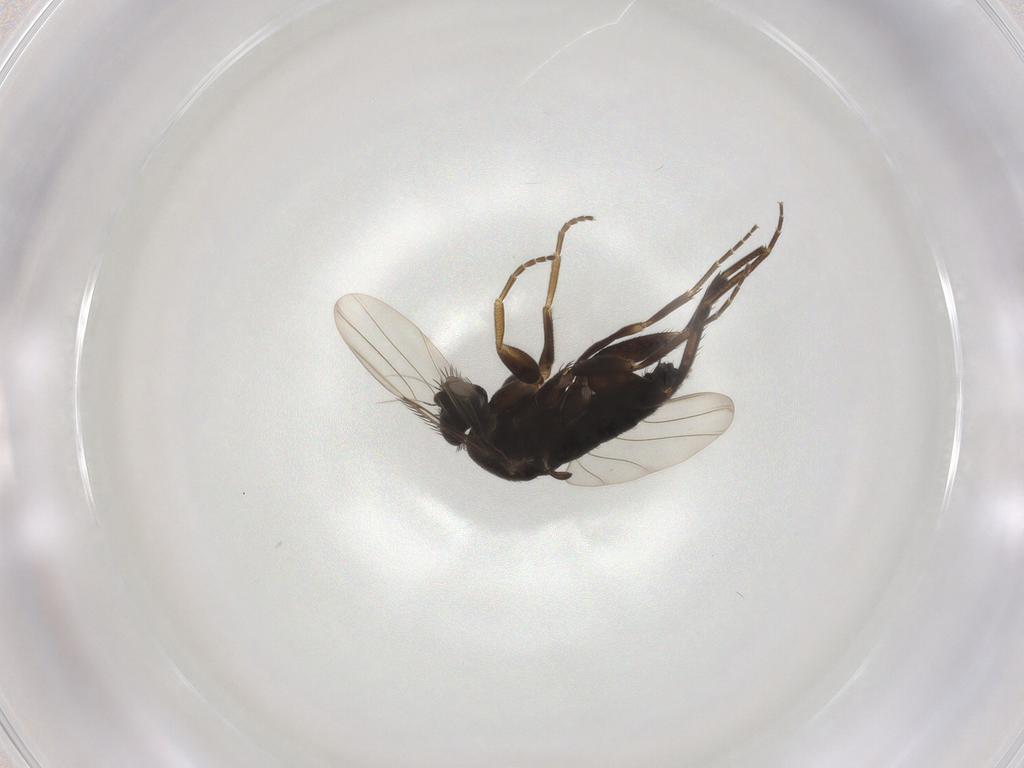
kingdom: Animalia
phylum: Arthropoda
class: Insecta
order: Diptera
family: Phoridae
